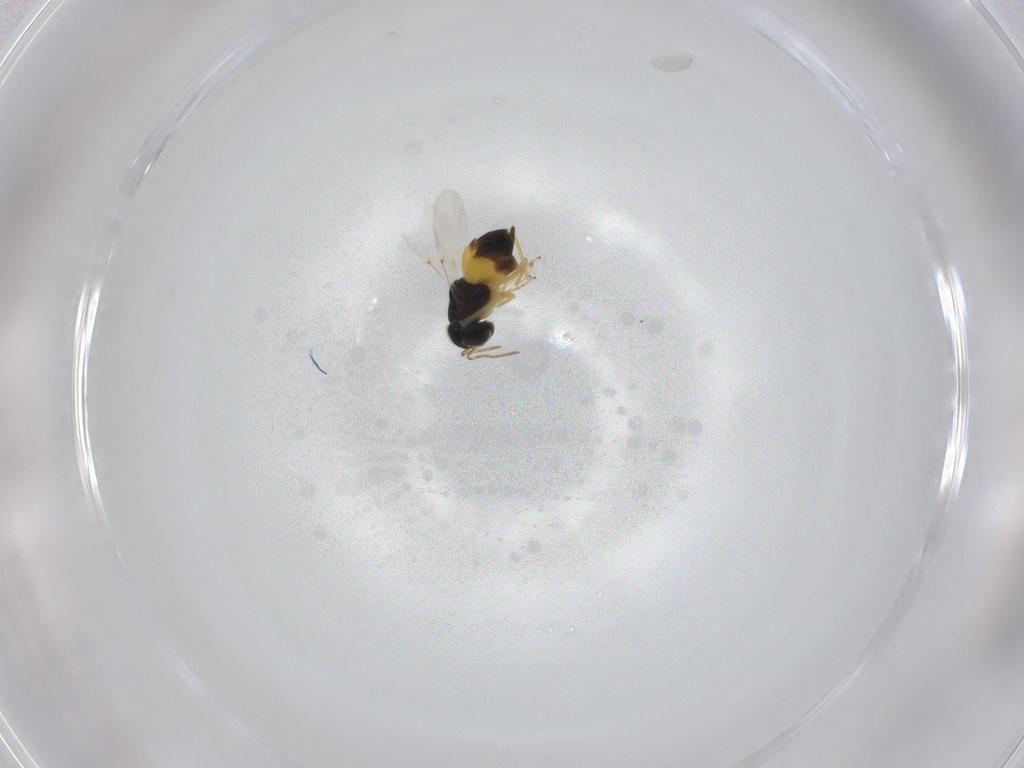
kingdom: Animalia
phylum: Arthropoda
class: Insecta
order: Hymenoptera
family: Encyrtidae
